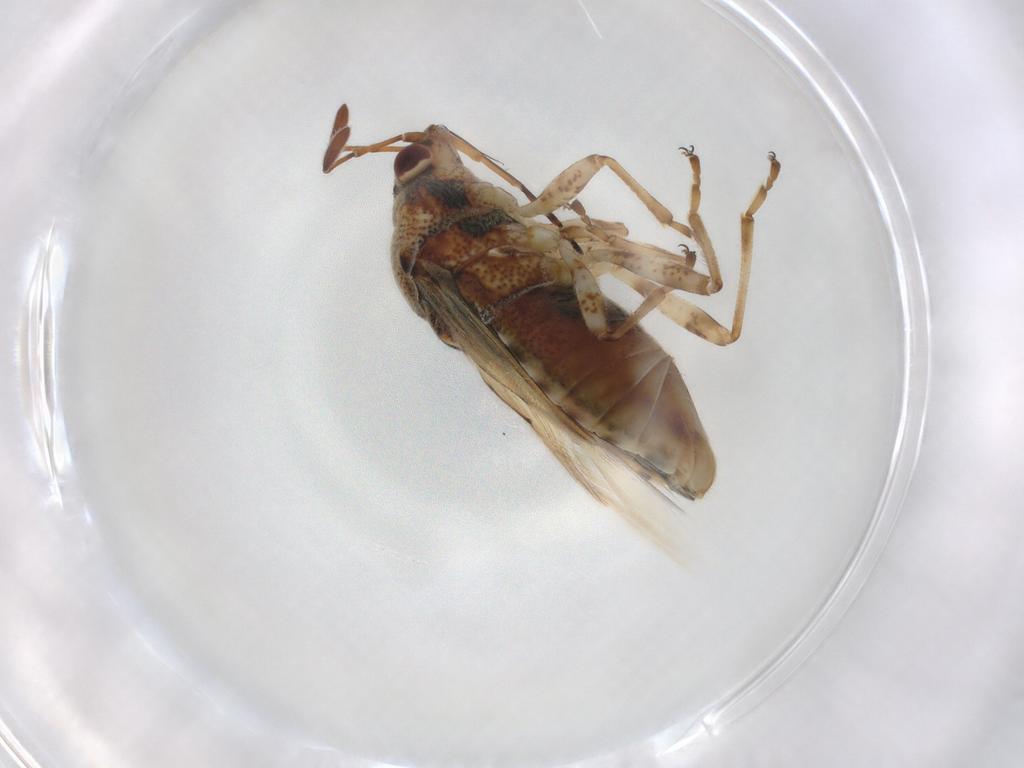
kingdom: Animalia
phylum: Arthropoda
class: Insecta
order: Hemiptera
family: Lygaeidae
